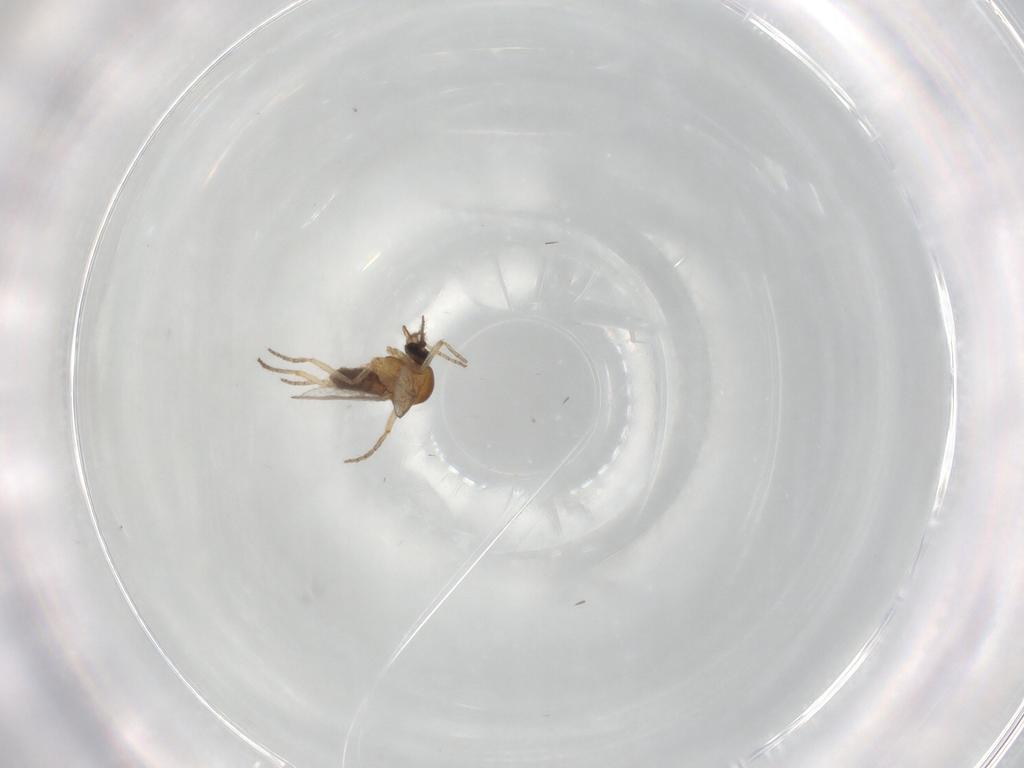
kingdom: Animalia
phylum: Arthropoda
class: Insecta
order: Diptera
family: Ceratopogonidae
